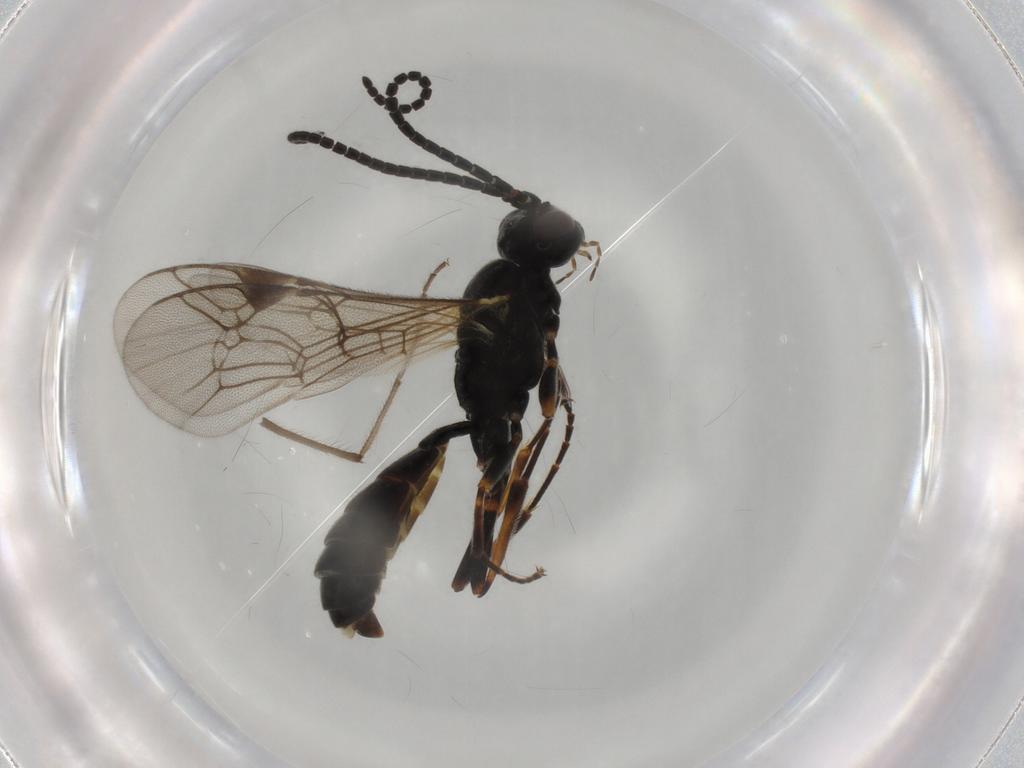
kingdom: Animalia
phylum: Arthropoda
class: Insecta
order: Hymenoptera
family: Ichneumonidae
